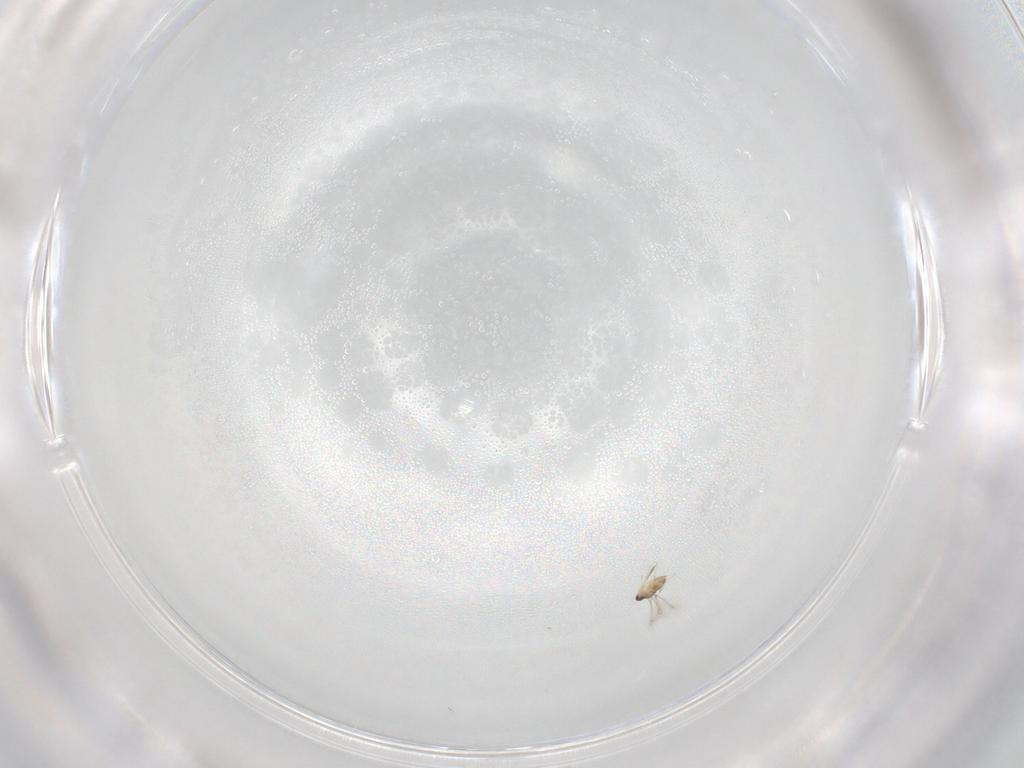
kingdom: Animalia
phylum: Arthropoda
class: Insecta
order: Hymenoptera
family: Mymaridae
